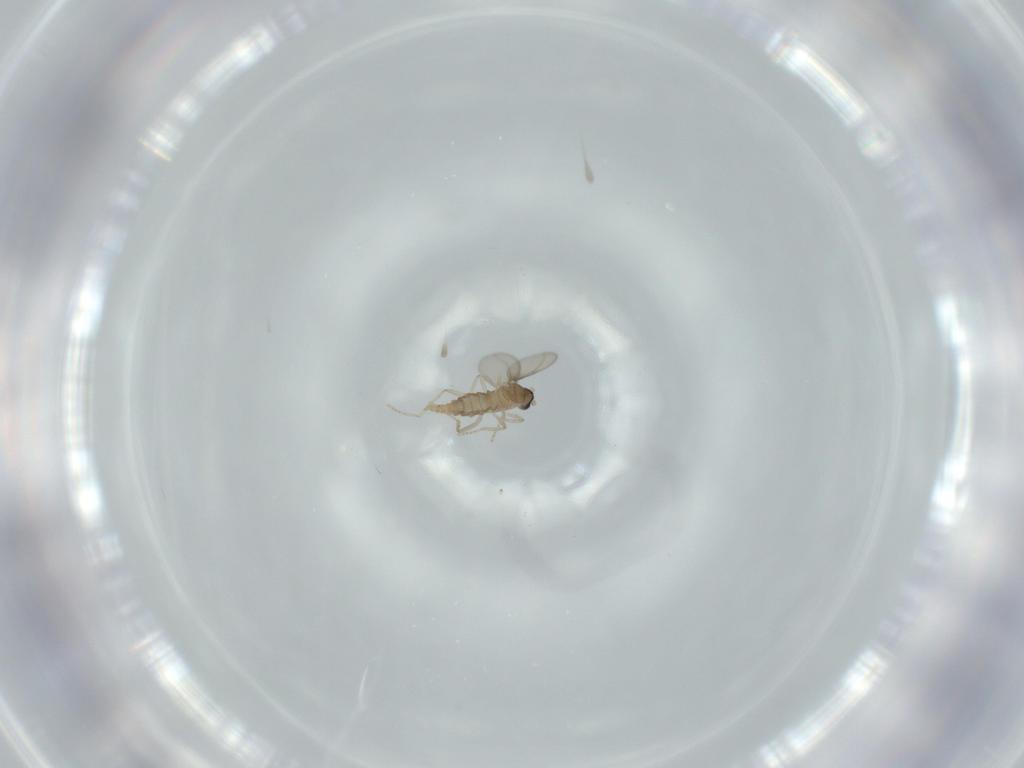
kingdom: Animalia
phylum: Arthropoda
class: Insecta
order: Diptera
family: Cecidomyiidae
